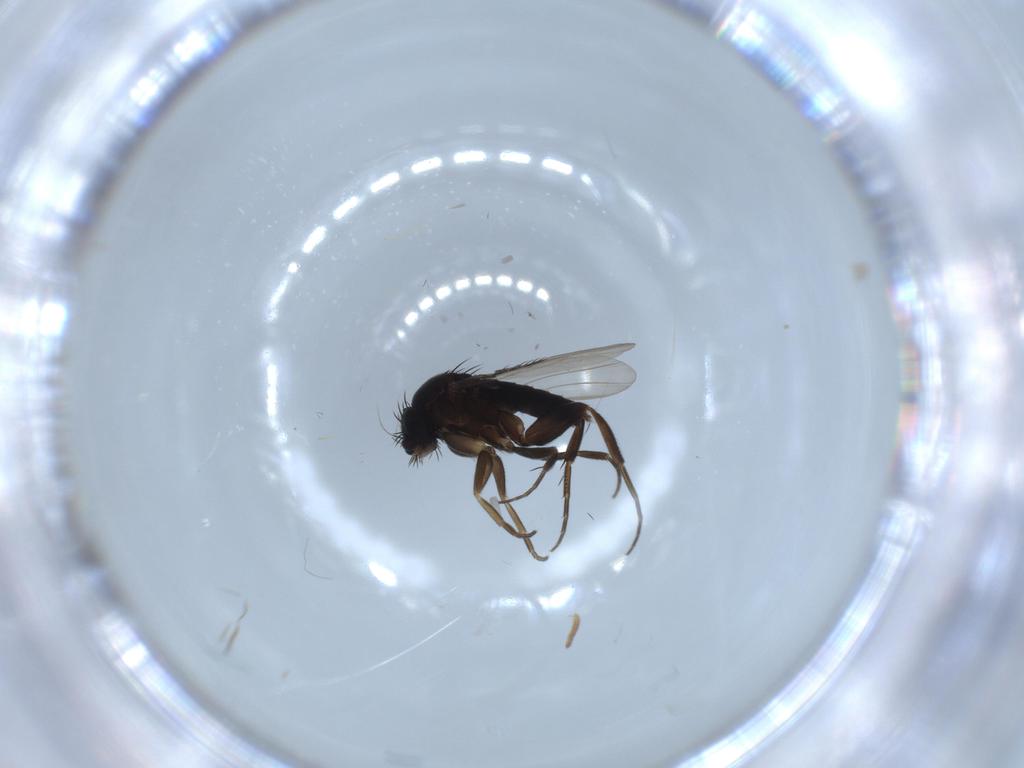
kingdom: Animalia
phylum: Arthropoda
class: Insecta
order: Diptera
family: Phoridae
